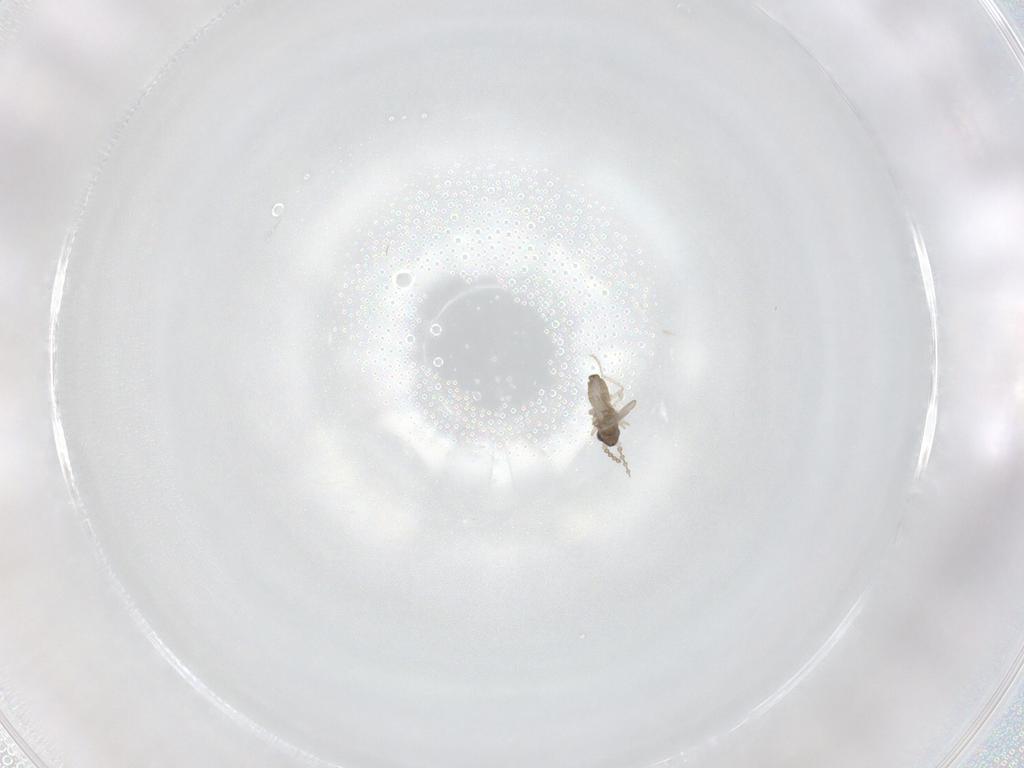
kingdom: Animalia
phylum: Arthropoda
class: Insecta
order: Diptera
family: Cecidomyiidae
